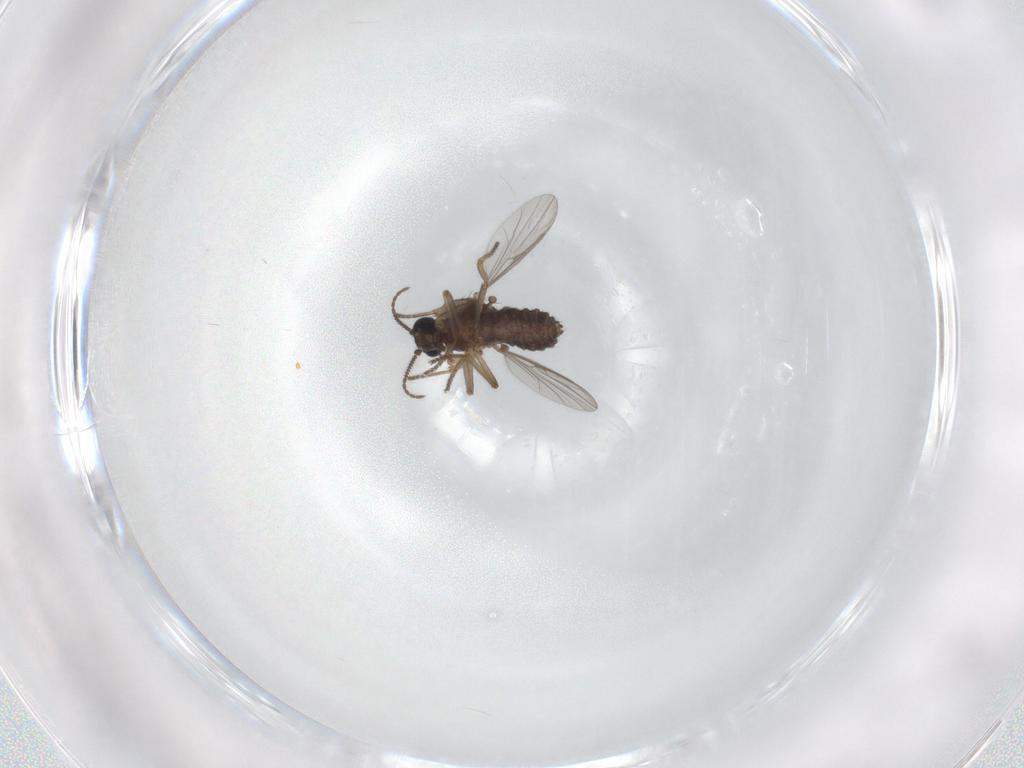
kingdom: Animalia
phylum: Arthropoda
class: Insecta
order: Diptera
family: Ceratopogonidae
